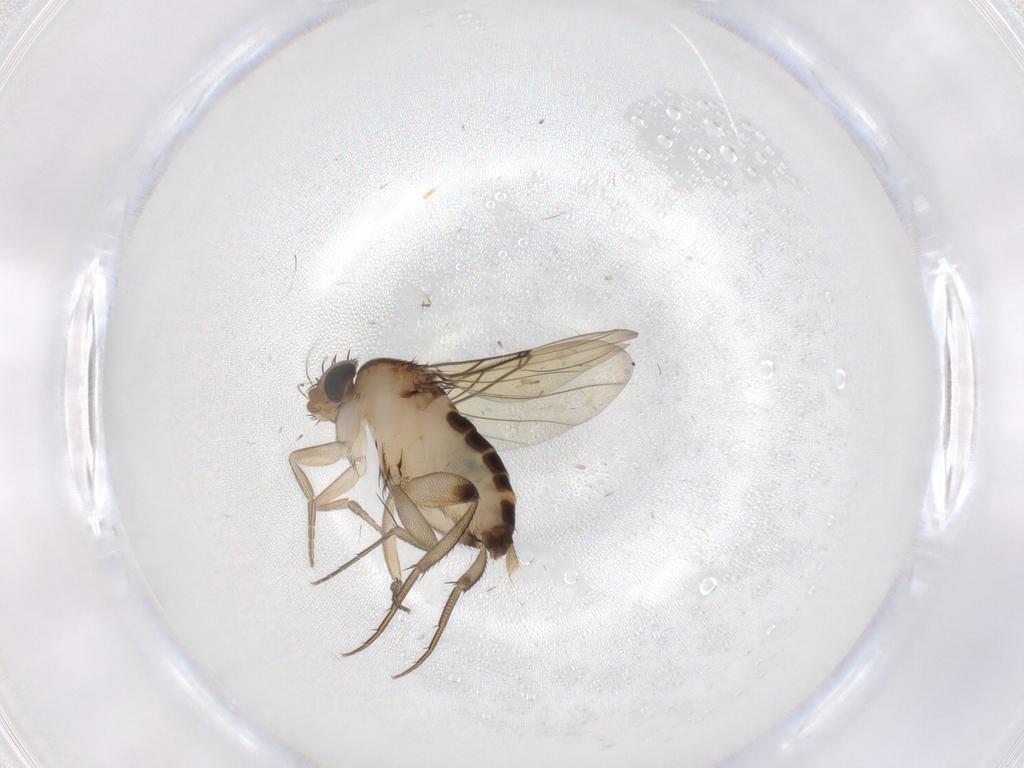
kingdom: Animalia
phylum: Arthropoda
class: Insecta
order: Diptera
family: Phoridae
